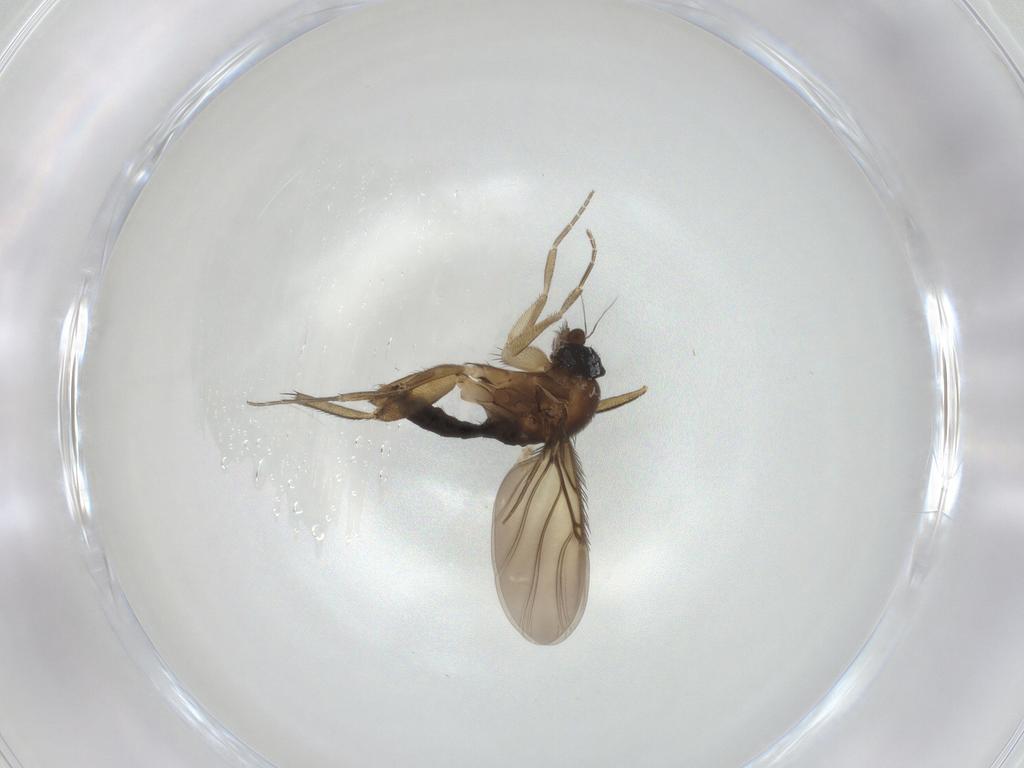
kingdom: Animalia
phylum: Arthropoda
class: Insecta
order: Diptera
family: Phoridae
